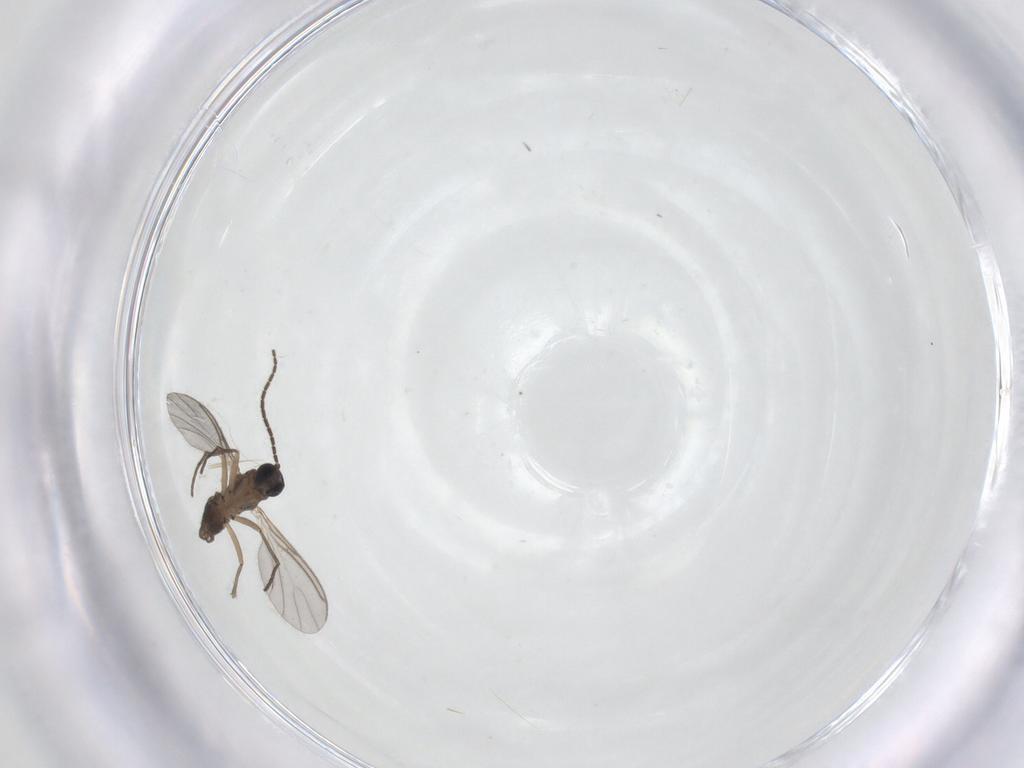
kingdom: Animalia
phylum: Arthropoda
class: Insecta
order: Diptera
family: Sciaridae
